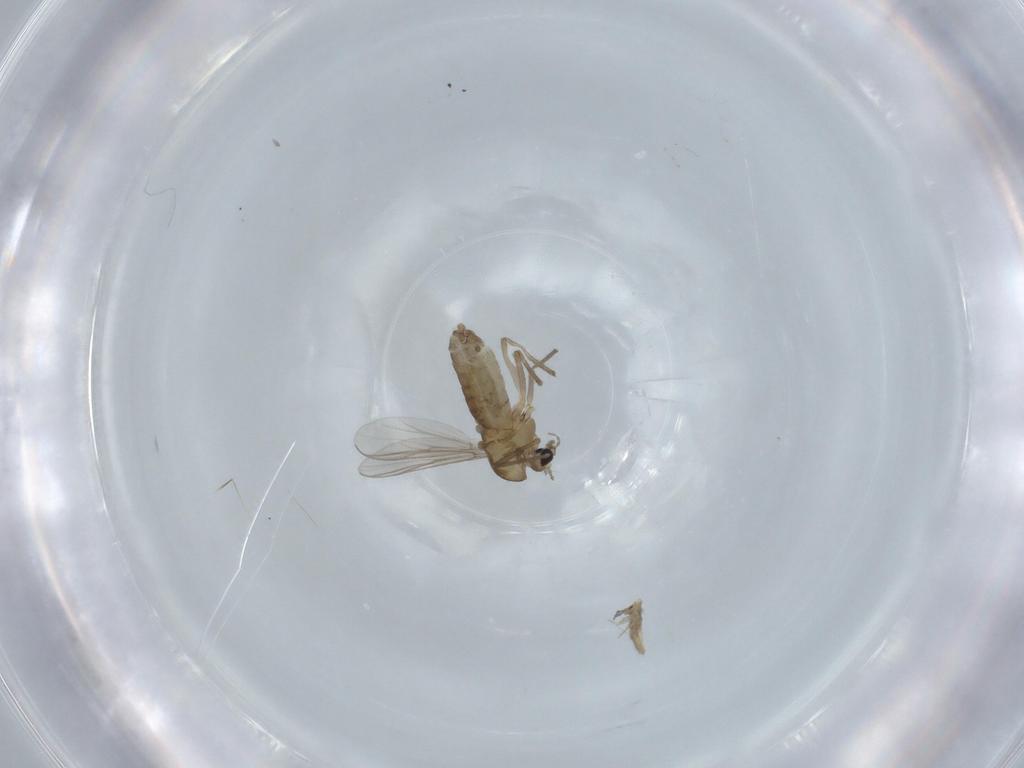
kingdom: Animalia
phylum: Arthropoda
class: Insecta
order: Diptera
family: Chironomidae
